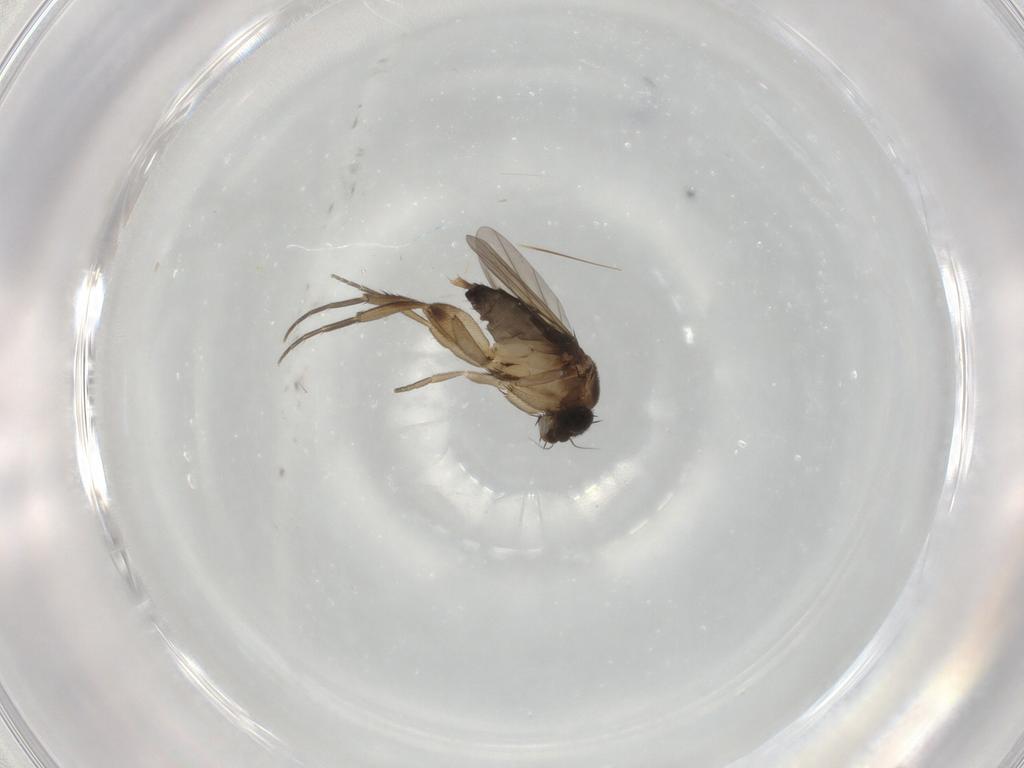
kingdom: Animalia
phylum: Arthropoda
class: Insecta
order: Diptera
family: Phoridae
